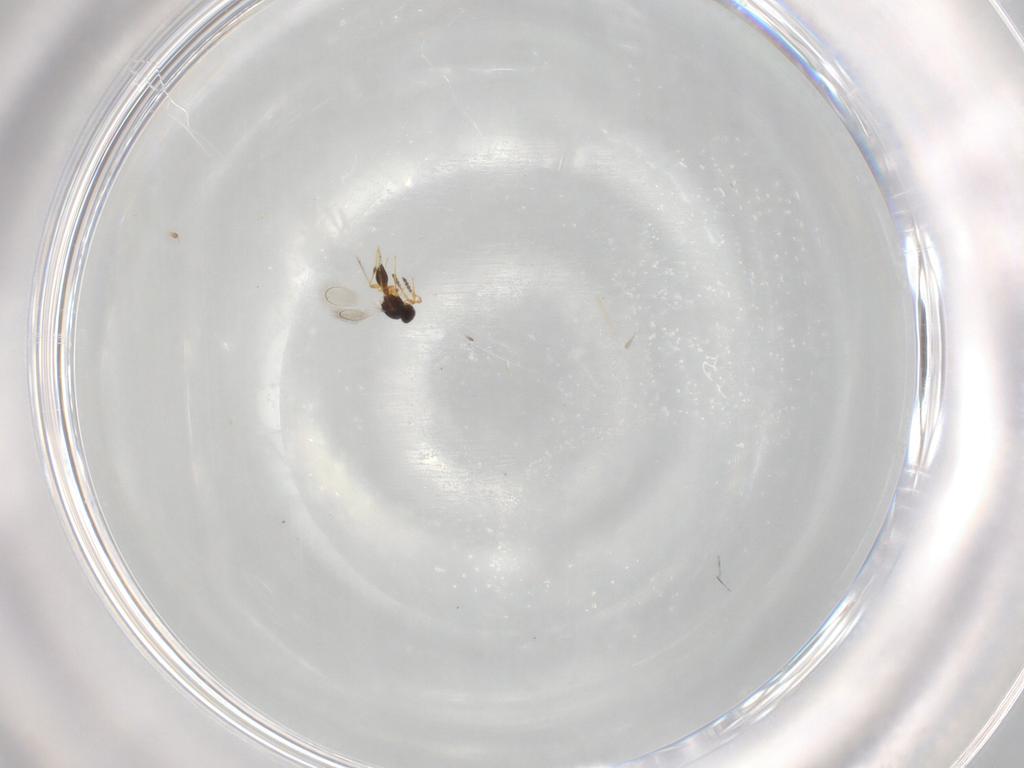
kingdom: Animalia
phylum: Arthropoda
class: Insecta
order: Hymenoptera
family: Platygastridae
